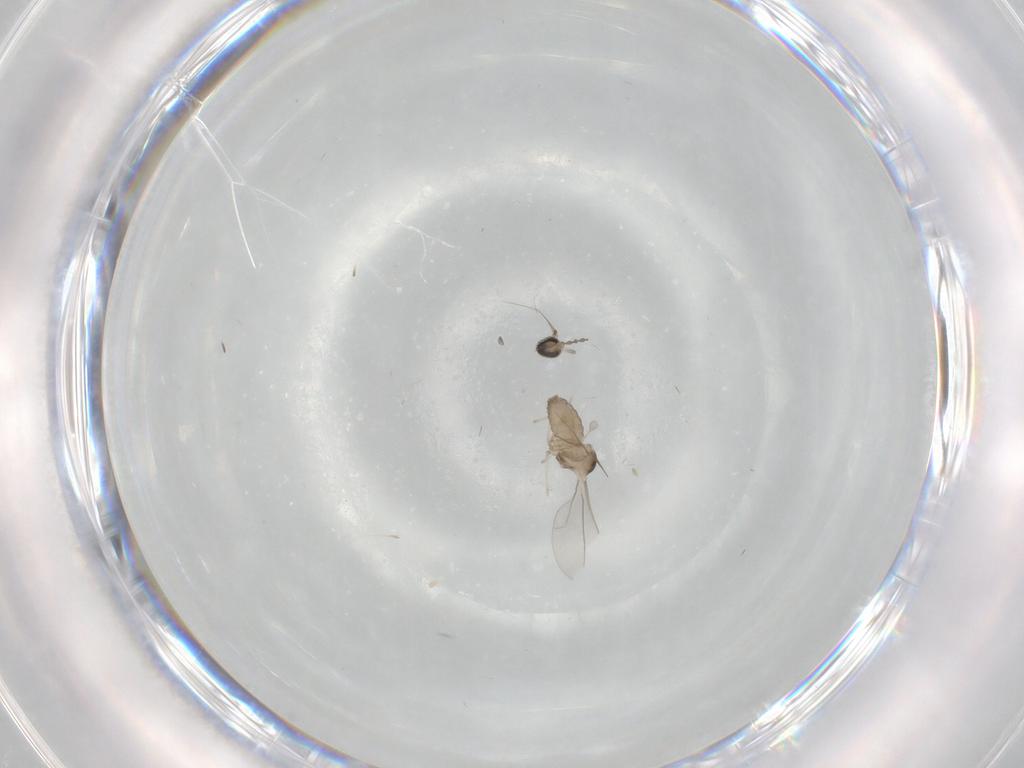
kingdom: Animalia
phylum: Arthropoda
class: Insecta
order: Diptera
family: Cecidomyiidae
